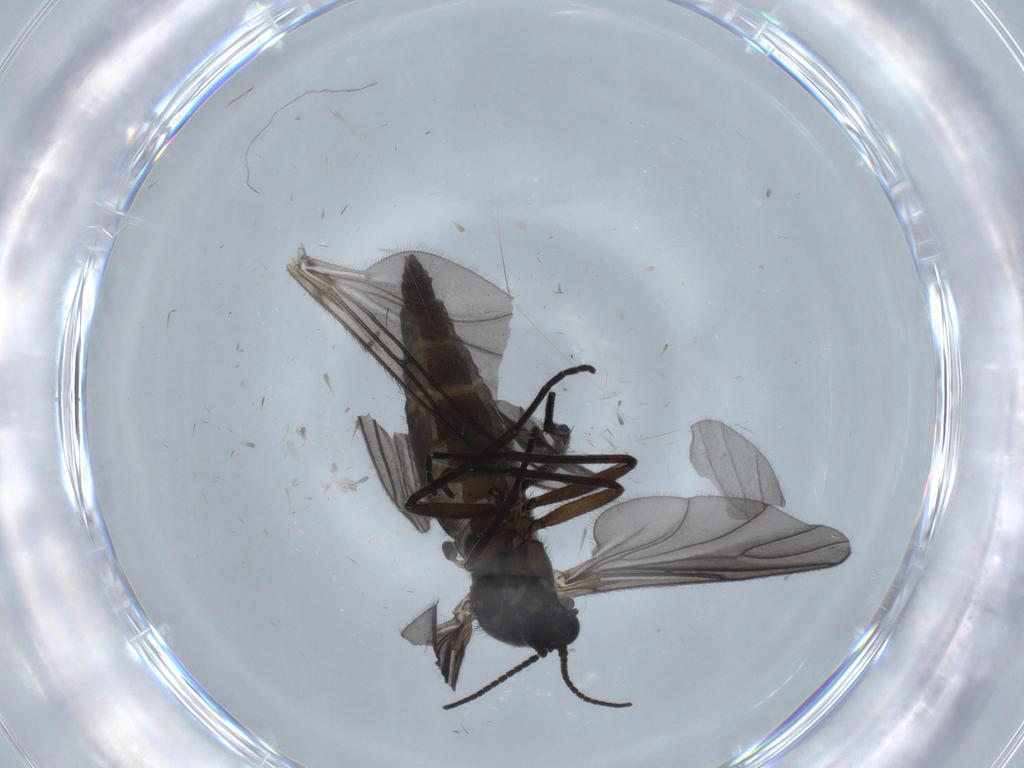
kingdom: Animalia
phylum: Arthropoda
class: Insecta
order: Diptera
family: Sciaridae
